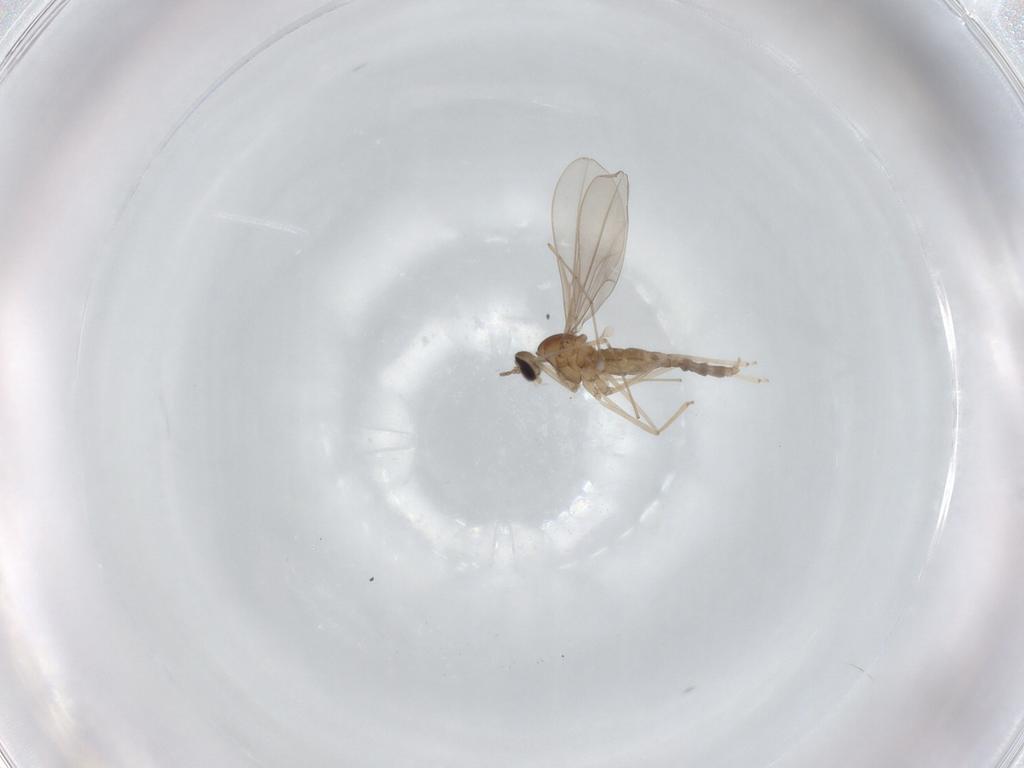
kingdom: Animalia
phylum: Arthropoda
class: Insecta
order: Diptera
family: Cecidomyiidae
